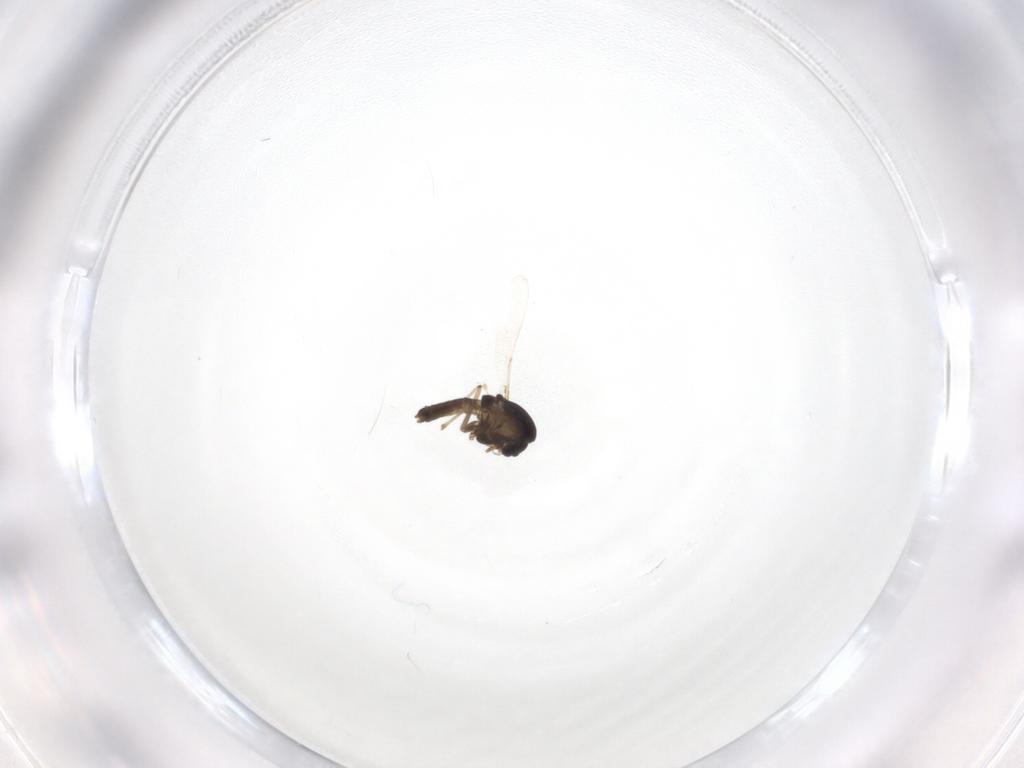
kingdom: Animalia
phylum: Arthropoda
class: Insecta
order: Diptera
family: Chironomidae
